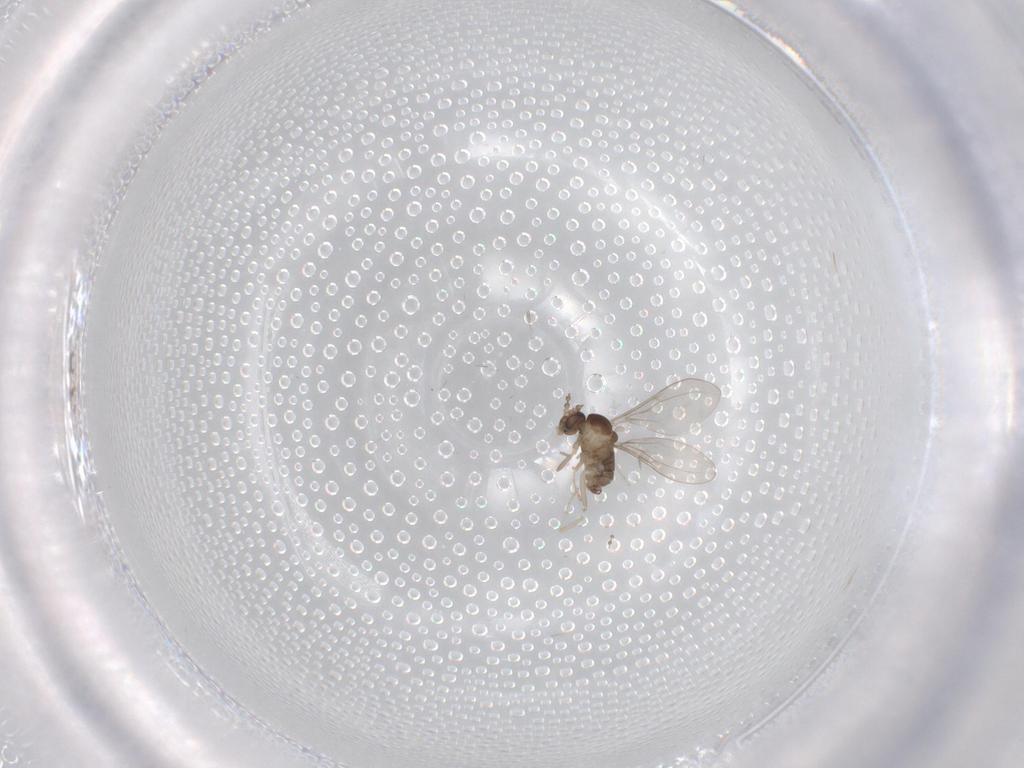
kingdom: Animalia
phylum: Arthropoda
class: Insecta
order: Diptera
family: Cecidomyiidae
